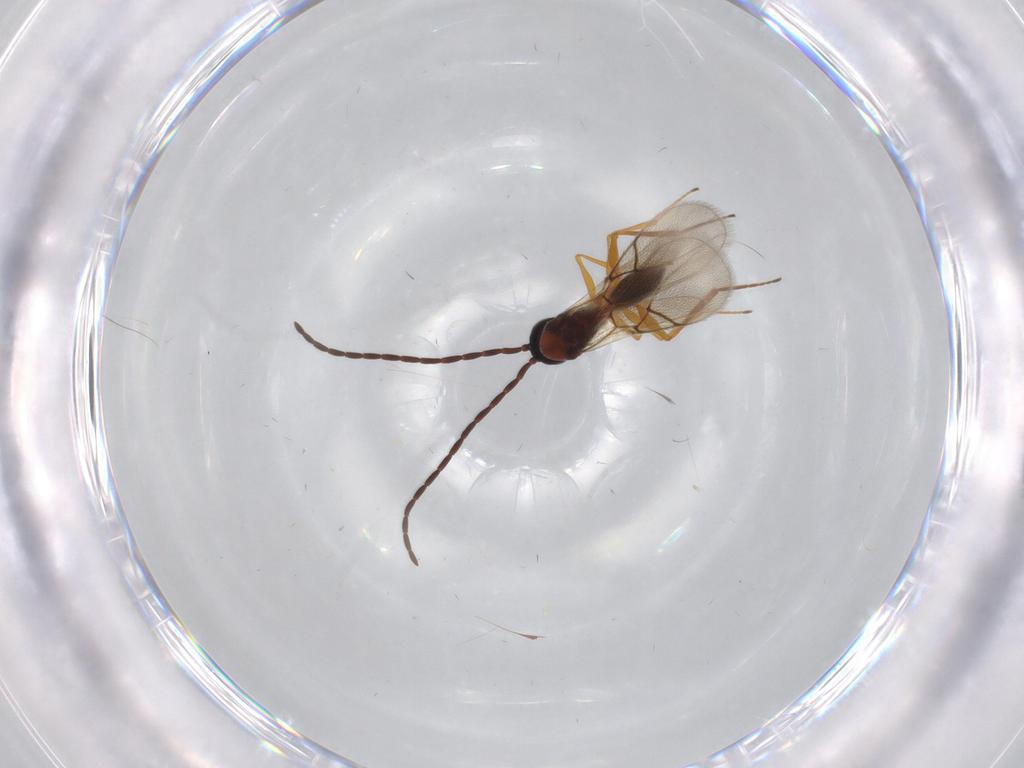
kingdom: Animalia
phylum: Arthropoda
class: Insecta
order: Hymenoptera
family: Figitidae
